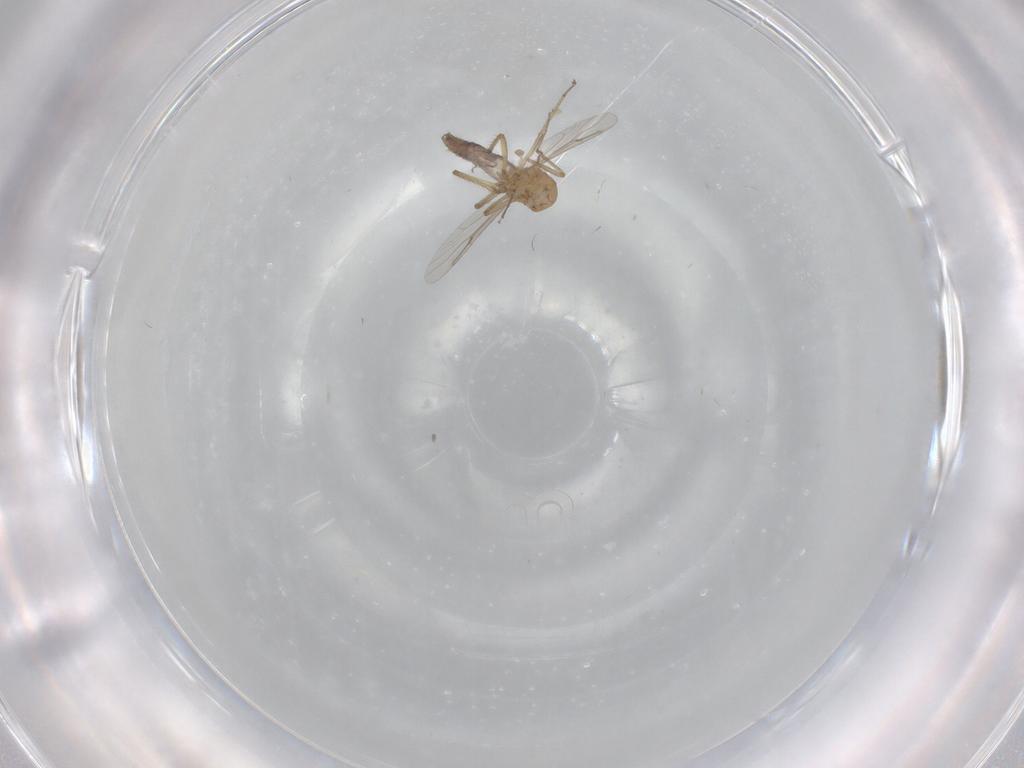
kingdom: Animalia
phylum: Arthropoda
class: Insecta
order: Diptera
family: Ceratopogonidae
